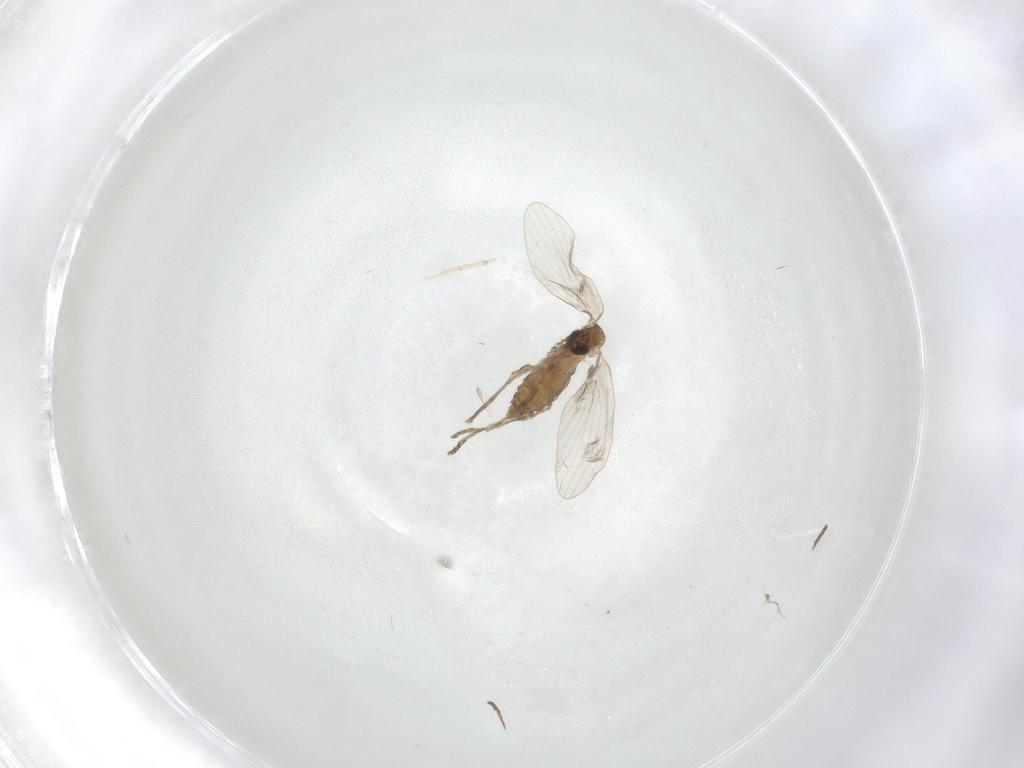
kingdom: Animalia
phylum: Arthropoda
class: Insecta
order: Diptera
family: Psychodidae
